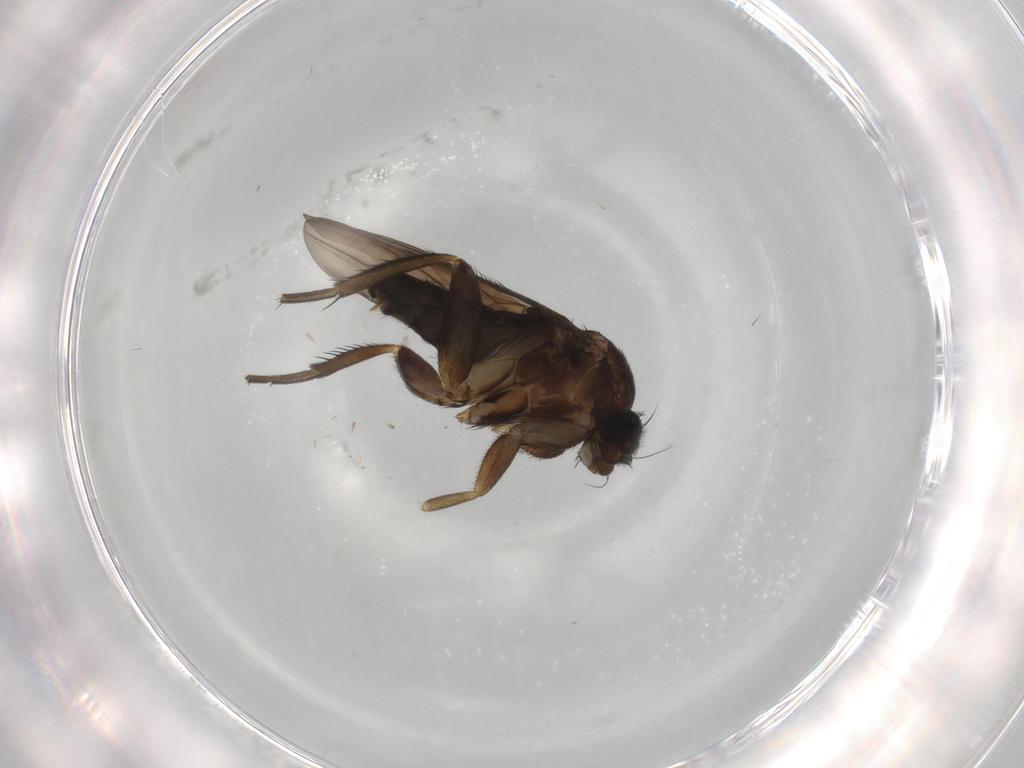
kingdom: Animalia
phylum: Arthropoda
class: Insecta
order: Diptera
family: Phoridae
